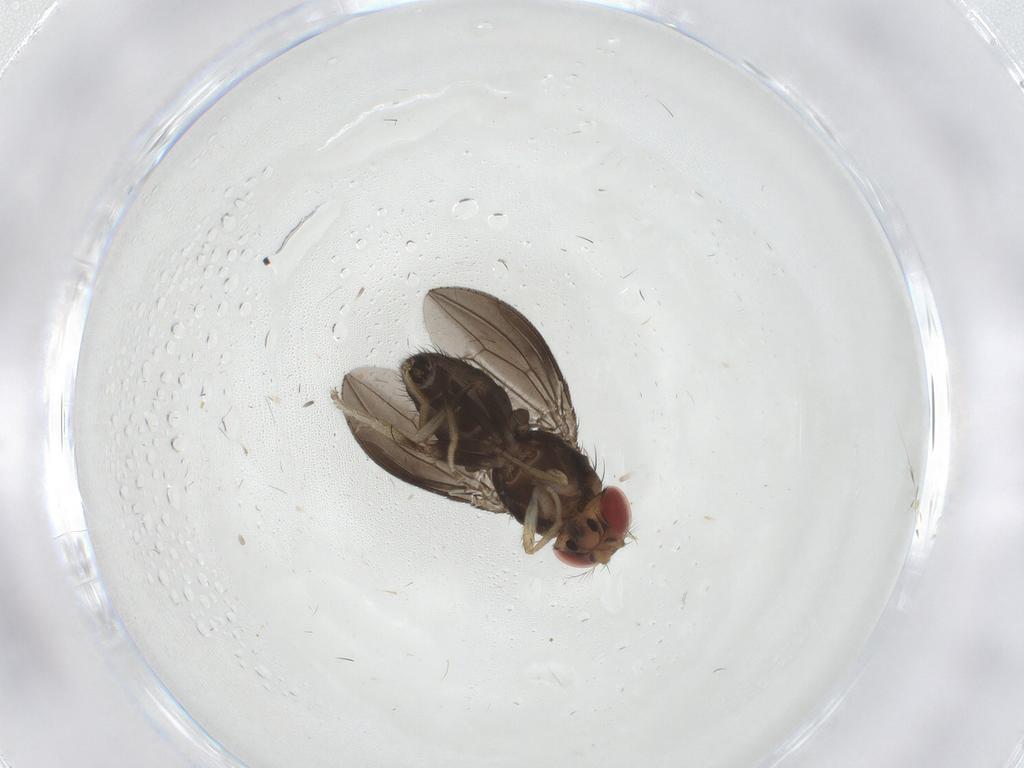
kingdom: Animalia
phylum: Arthropoda
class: Insecta
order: Diptera
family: Drosophilidae
